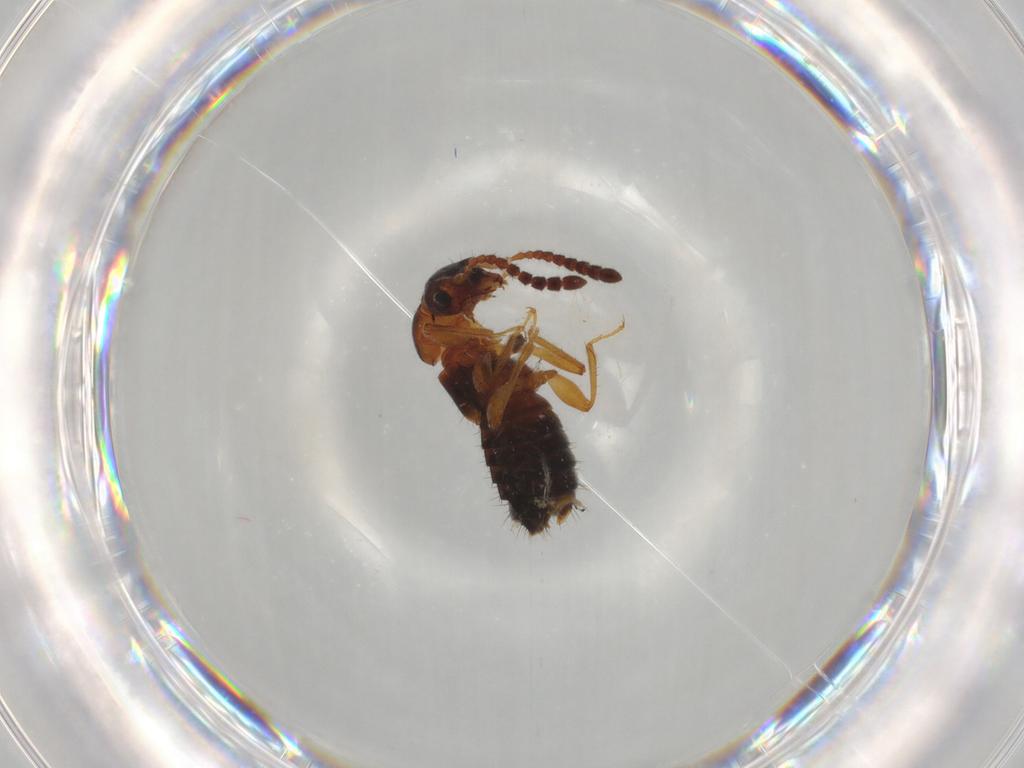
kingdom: Animalia
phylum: Arthropoda
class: Insecta
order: Coleoptera
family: Staphylinidae
